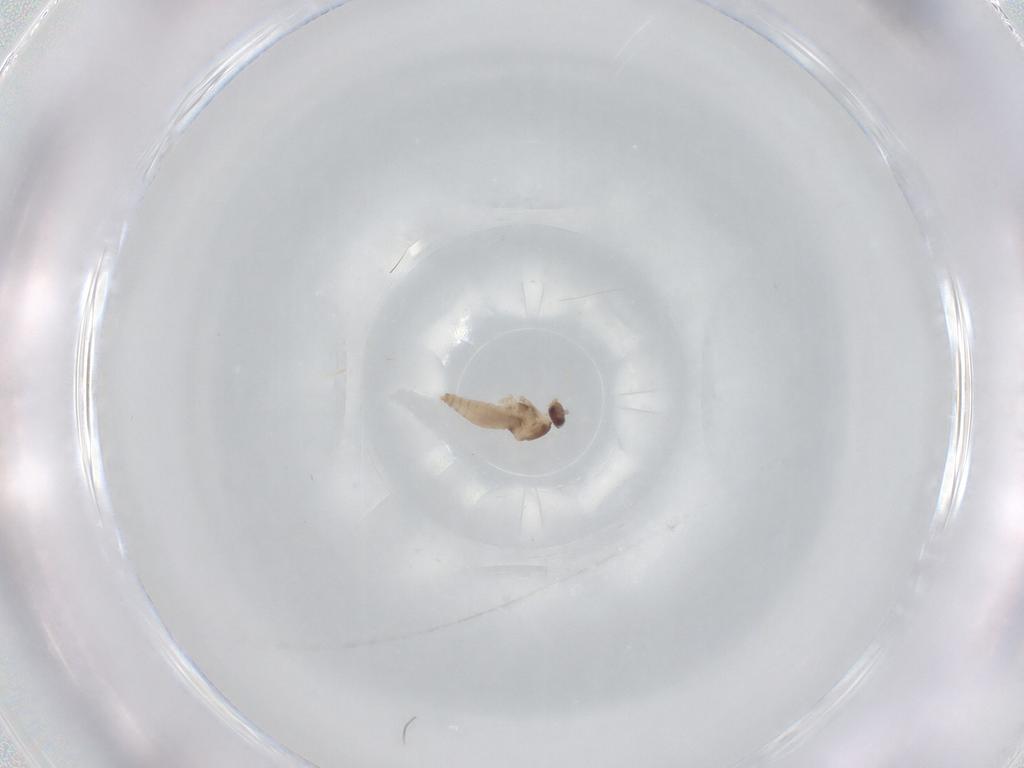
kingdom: Animalia
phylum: Arthropoda
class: Insecta
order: Diptera
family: Cecidomyiidae
